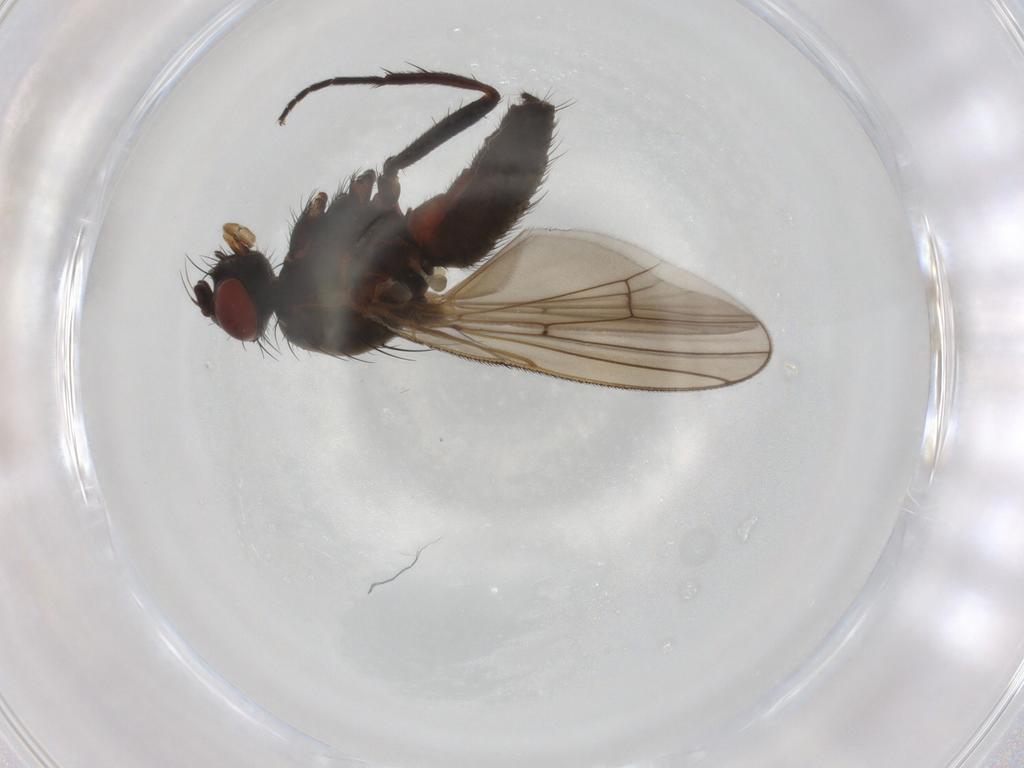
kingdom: Animalia
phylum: Arthropoda
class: Insecta
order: Diptera
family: Anthomyiidae
